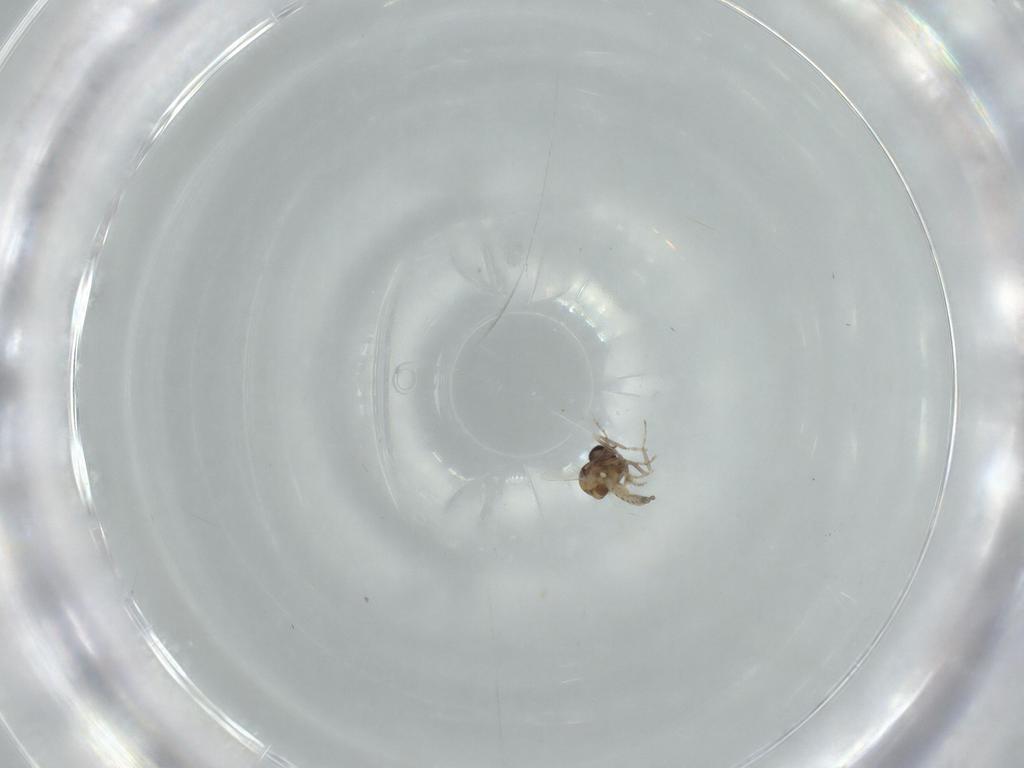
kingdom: Animalia
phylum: Arthropoda
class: Insecta
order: Diptera
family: Ceratopogonidae
